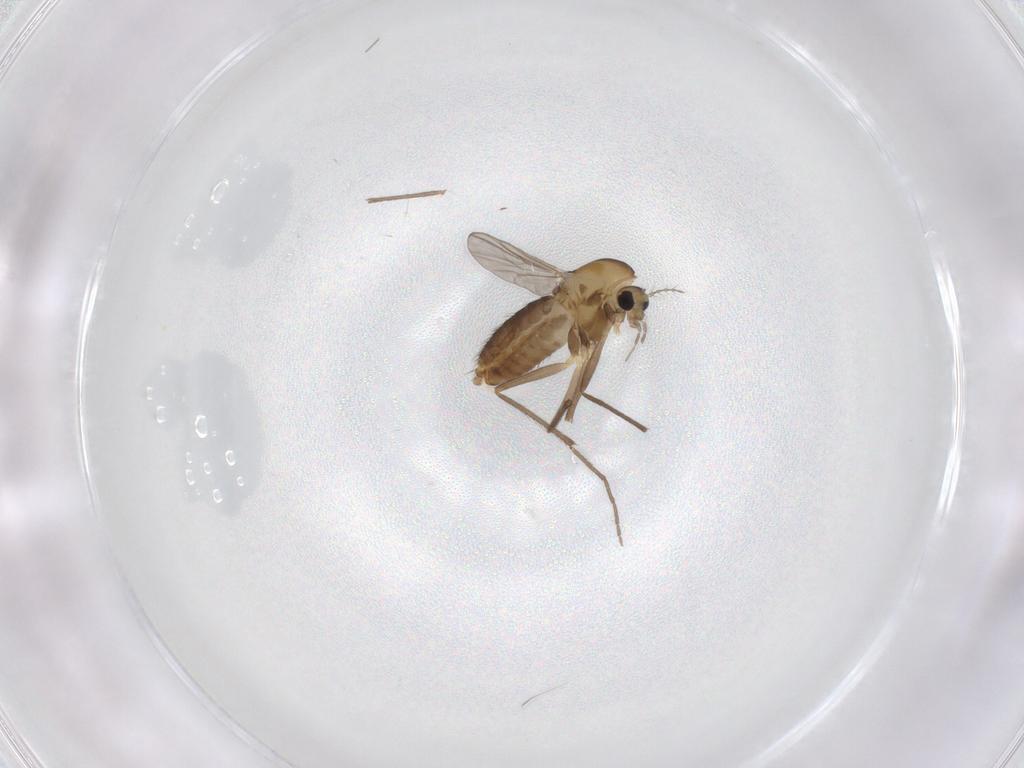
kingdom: Animalia
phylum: Arthropoda
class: Insecta
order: Diptera
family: Chironomidae
